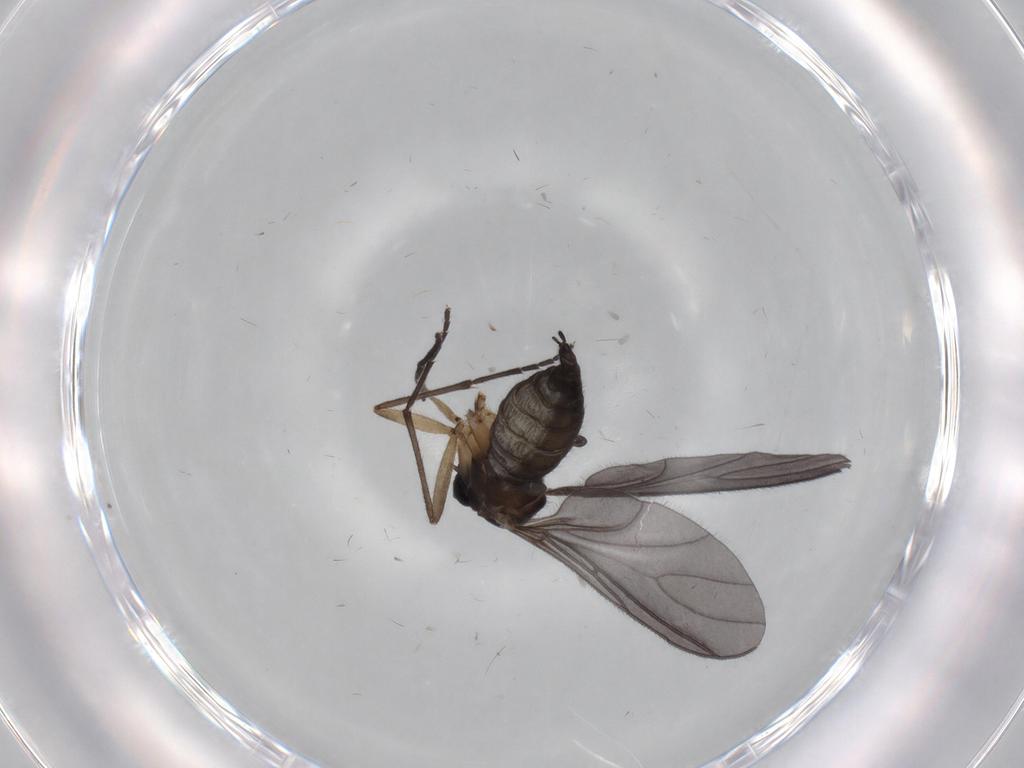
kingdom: Animalia
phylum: Arthropoda
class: Insecta
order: Diptera
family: Sciaridae
